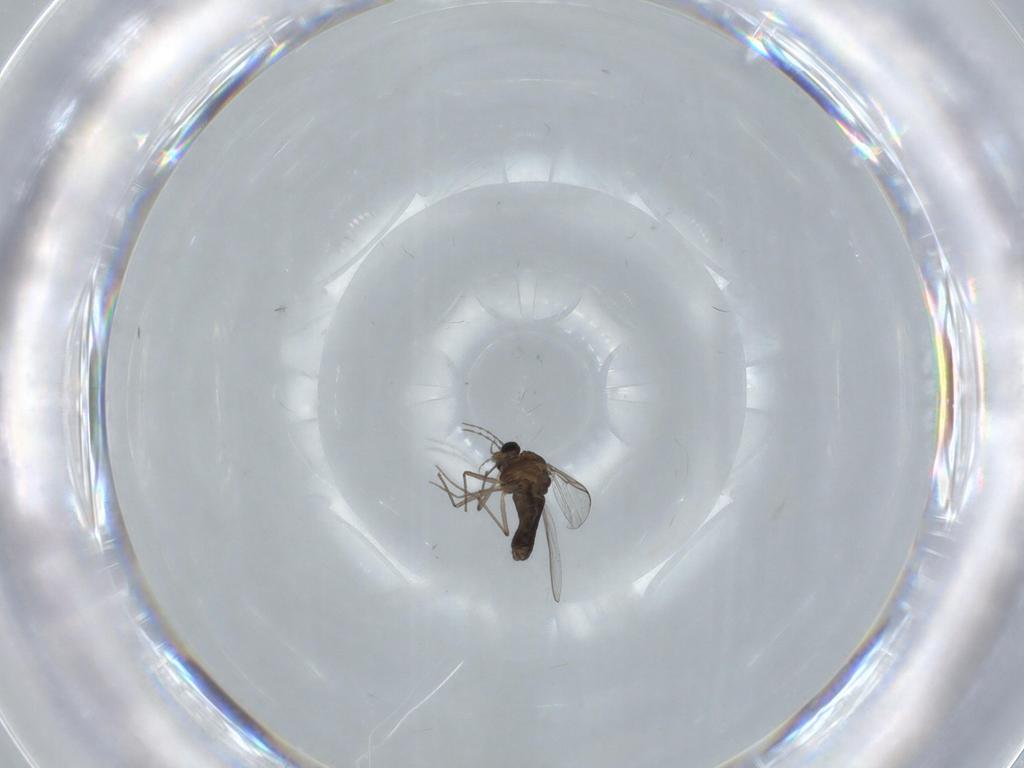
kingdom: Animalia
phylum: Arthropoda
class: Insecta
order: Diptera
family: Chironomidae
